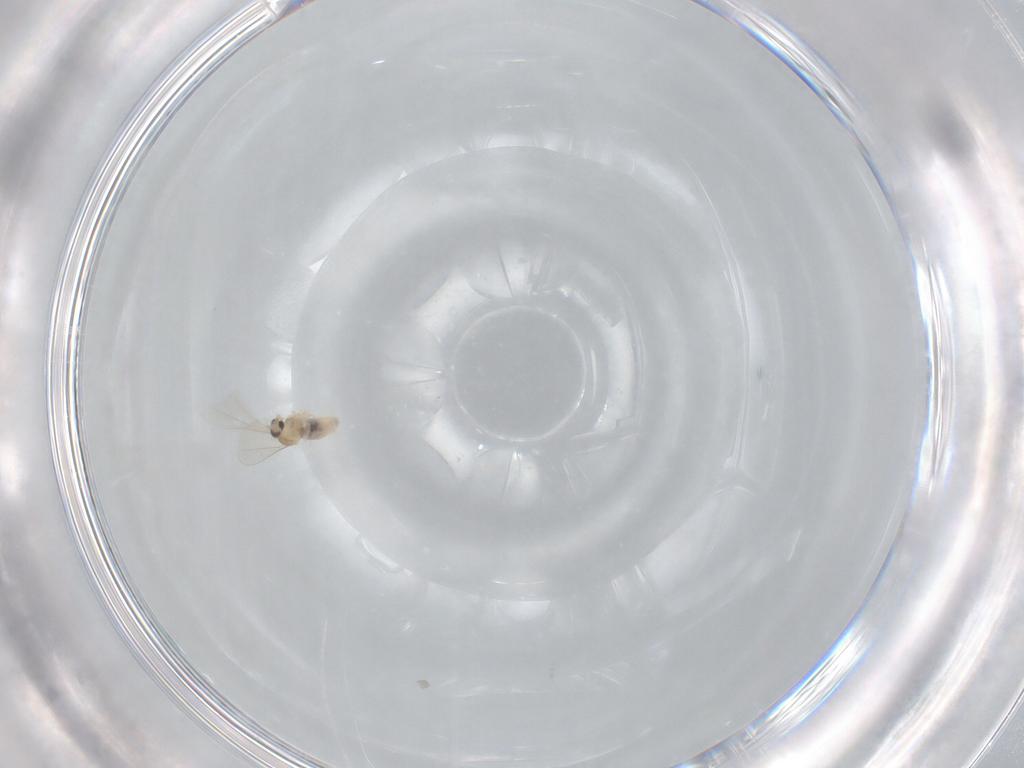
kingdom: Animalia
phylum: Arthropoda
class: Insecta
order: Diptera
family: Cecidomyiidae
